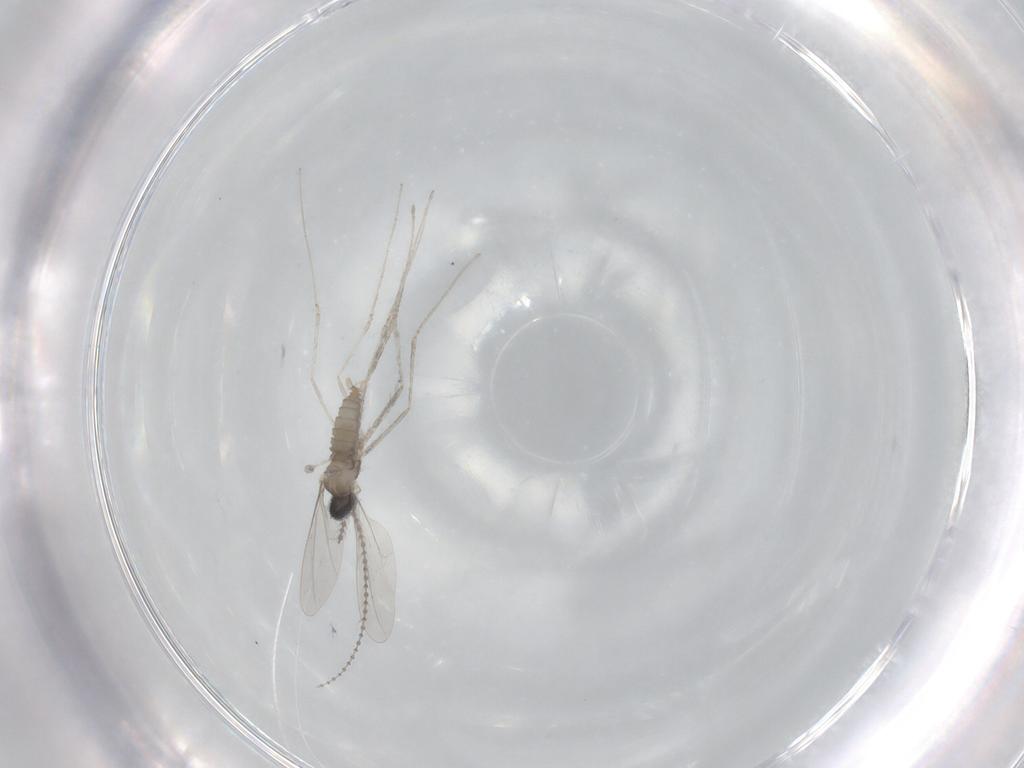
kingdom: Animalia
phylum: Arthropoda
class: Insecta
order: Diptera
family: Cecidomyiidae
